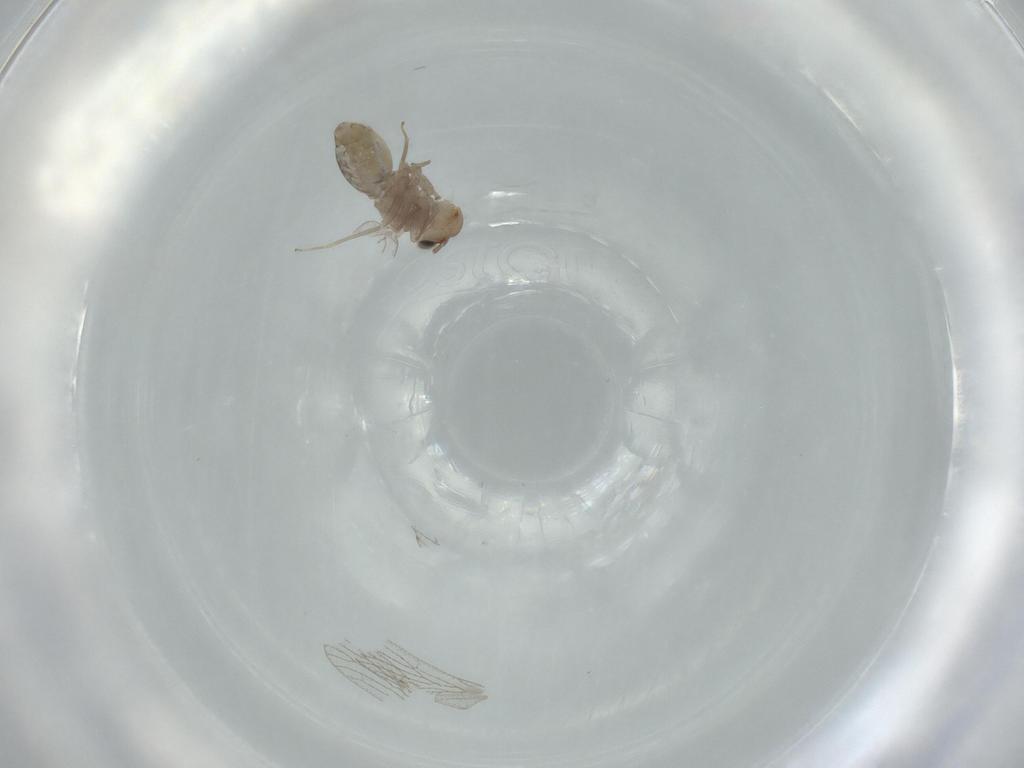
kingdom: Animalia
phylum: Arthropoda
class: Insecta
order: Psocodea
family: Psoquillidae
